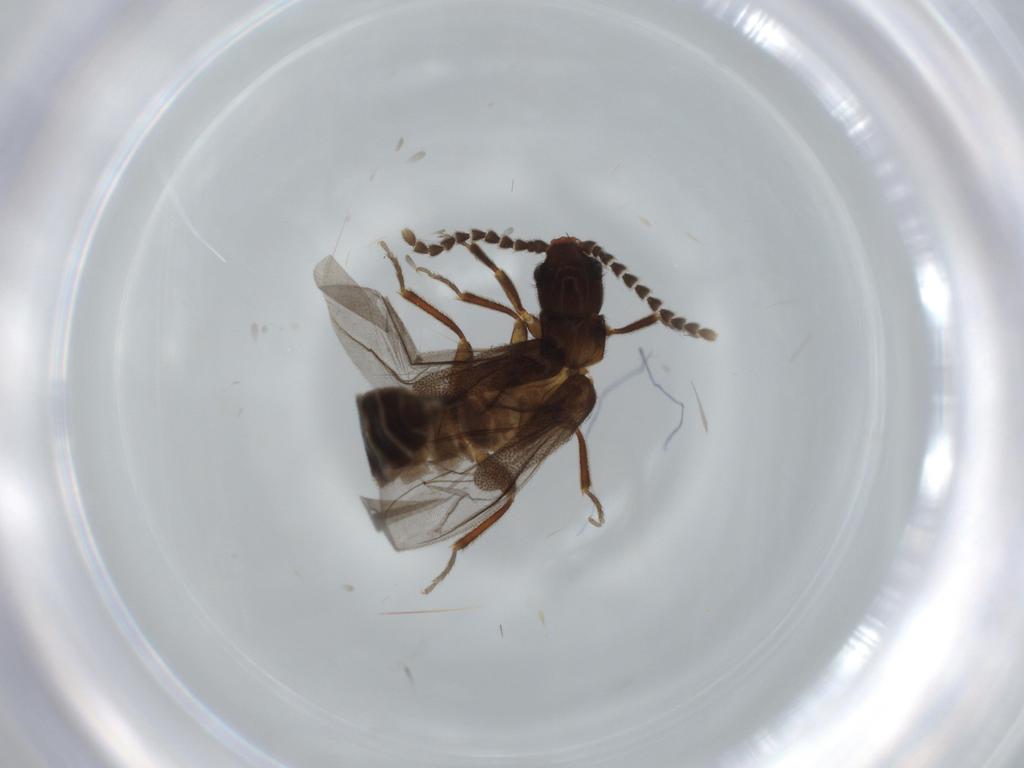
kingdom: Animalia
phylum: Arthropoda
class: Insecta
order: Coleoptera
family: Omethidae
